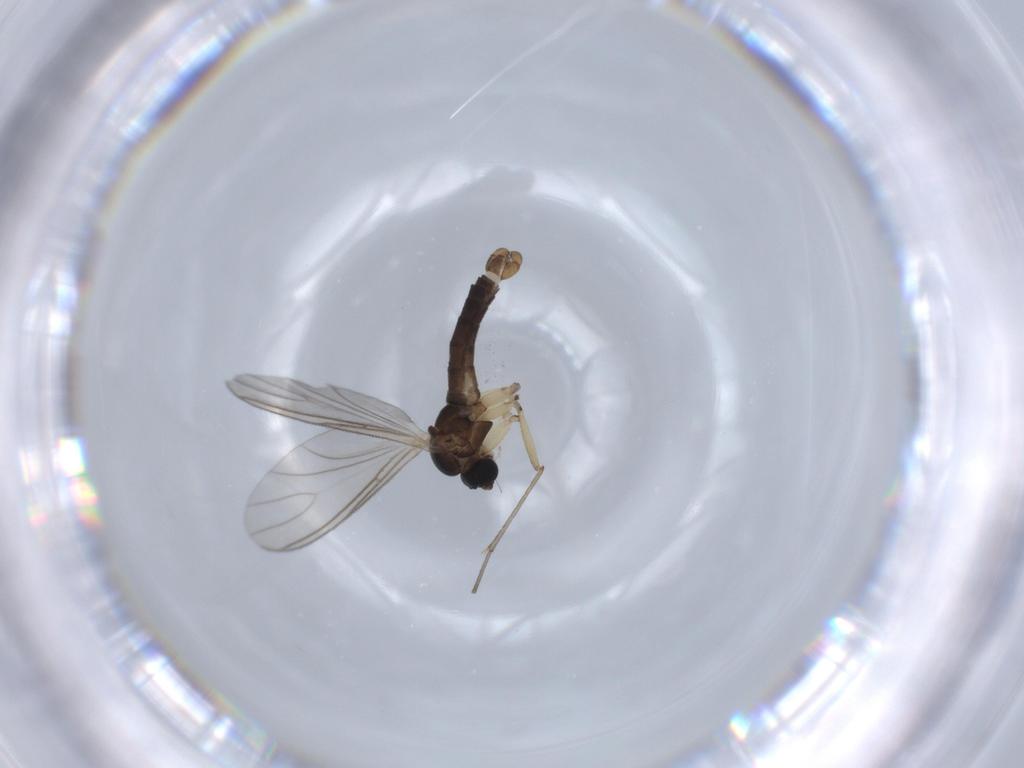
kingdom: Animalia
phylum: Arthropoda
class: Insecta
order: Diptera
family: Sciaridae
